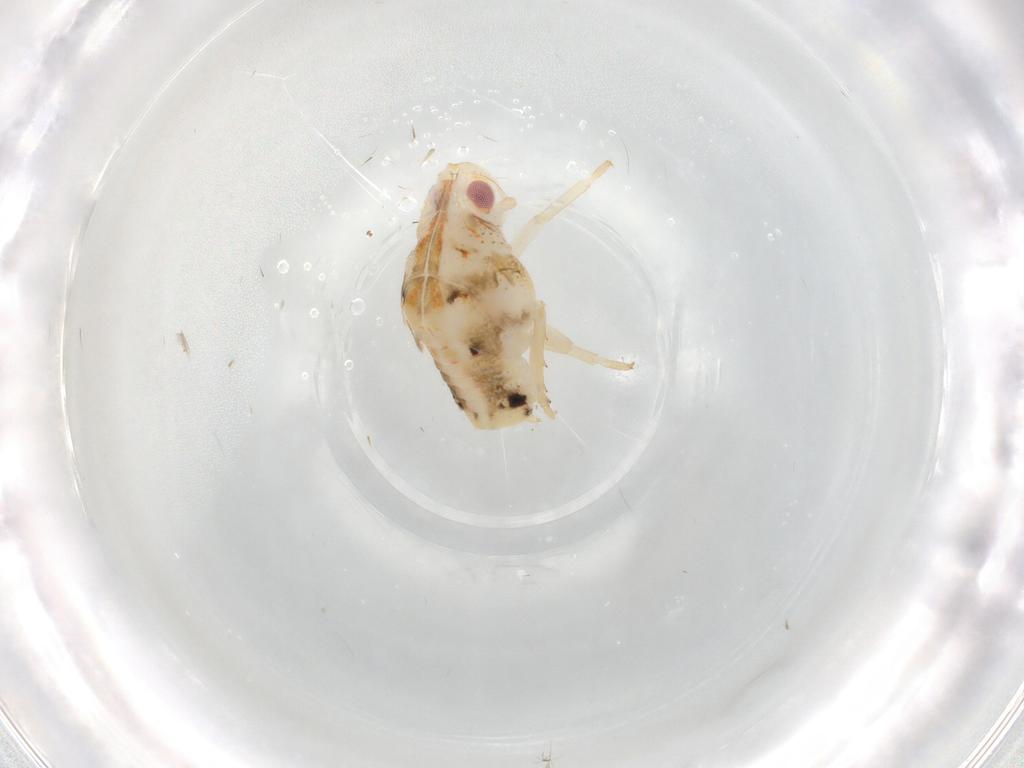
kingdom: Animalia
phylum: Arthropoda
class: Insecta
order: Hemiptera
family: Flatidae
